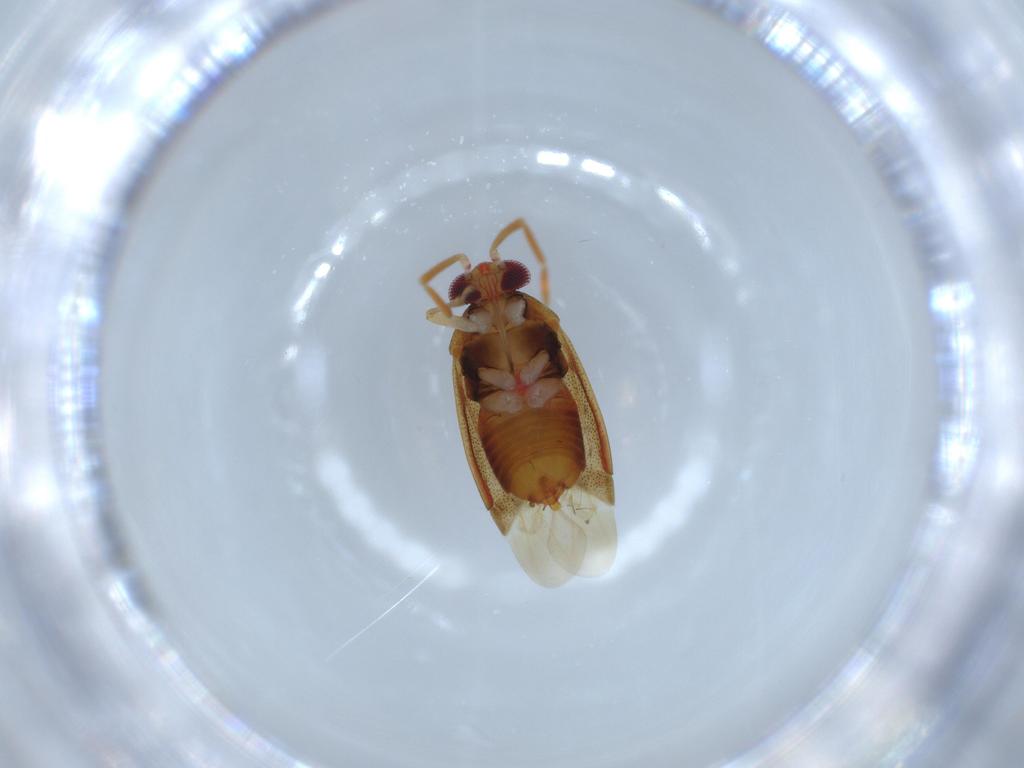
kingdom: Animalia
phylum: Arthropoda
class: Insecta
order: Hemiptera
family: Miridae
